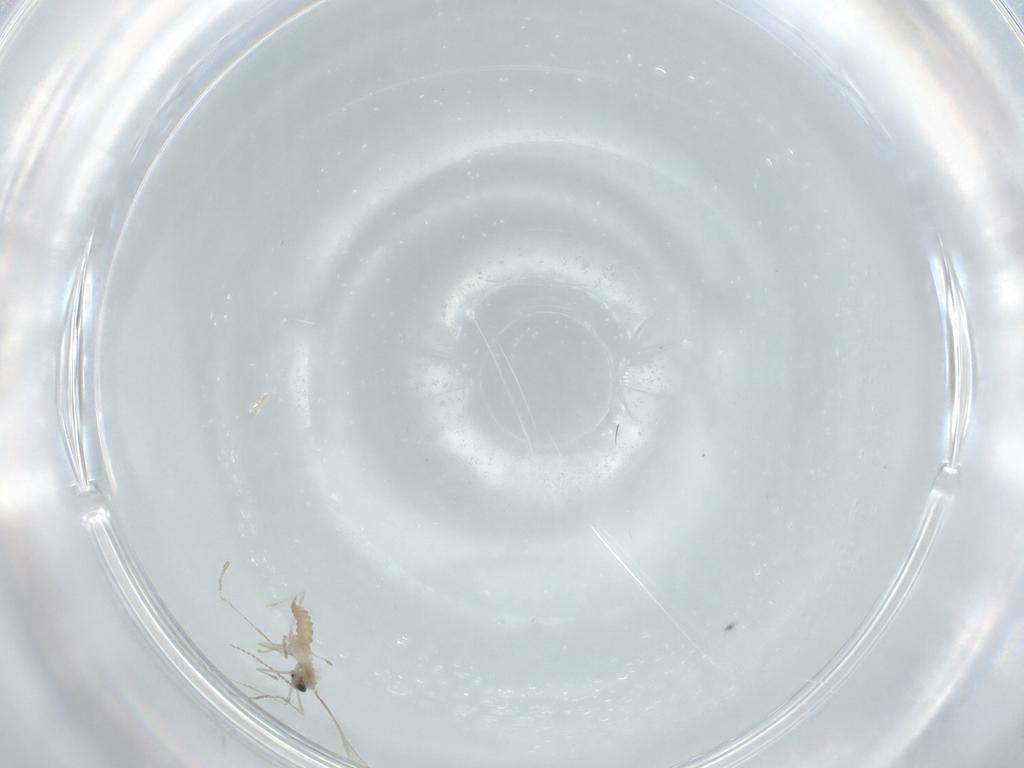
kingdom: Animalia
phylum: Arthropoda
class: Insecta
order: Diptera
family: Cecidomyiidae
